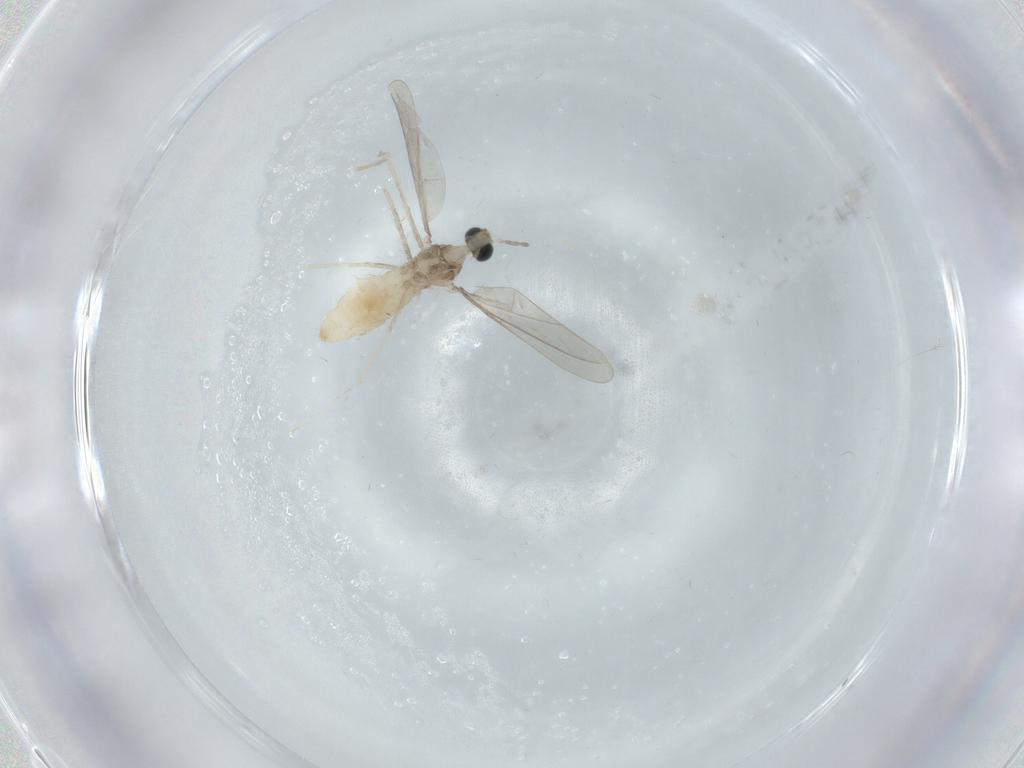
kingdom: Animalia
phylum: Arthropoda
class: Insecta
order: Diptera
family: Cecidomyiidae
